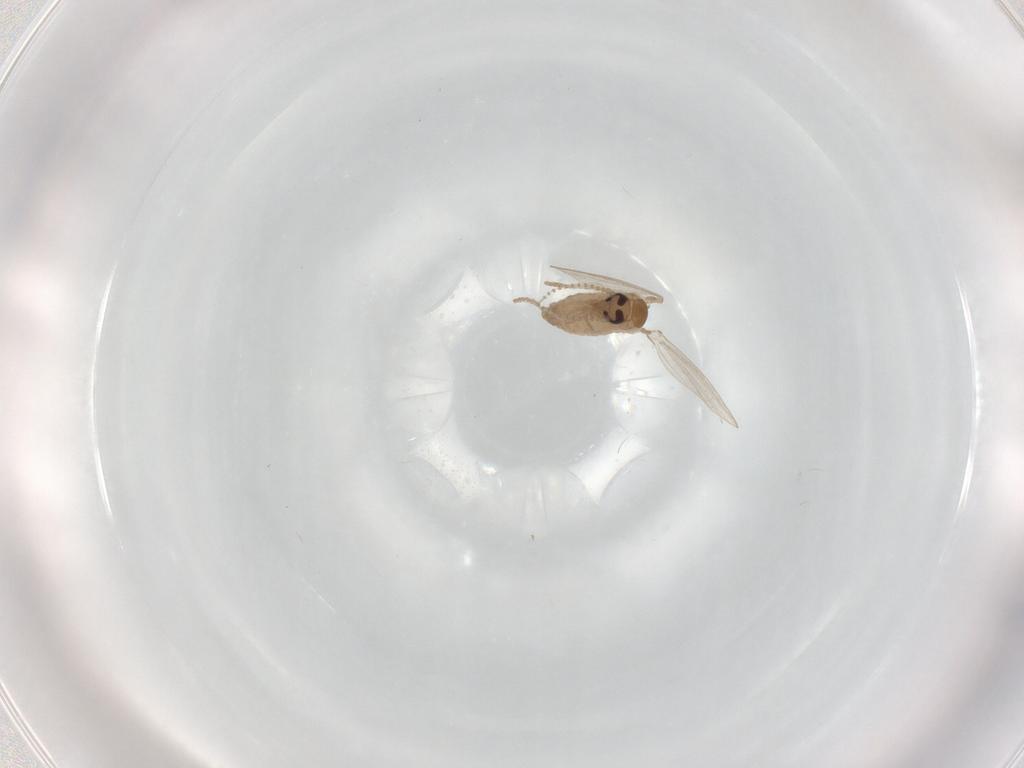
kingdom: Animalia
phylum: Arthropoda
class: Insecta
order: Diptera
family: Psychodidae
